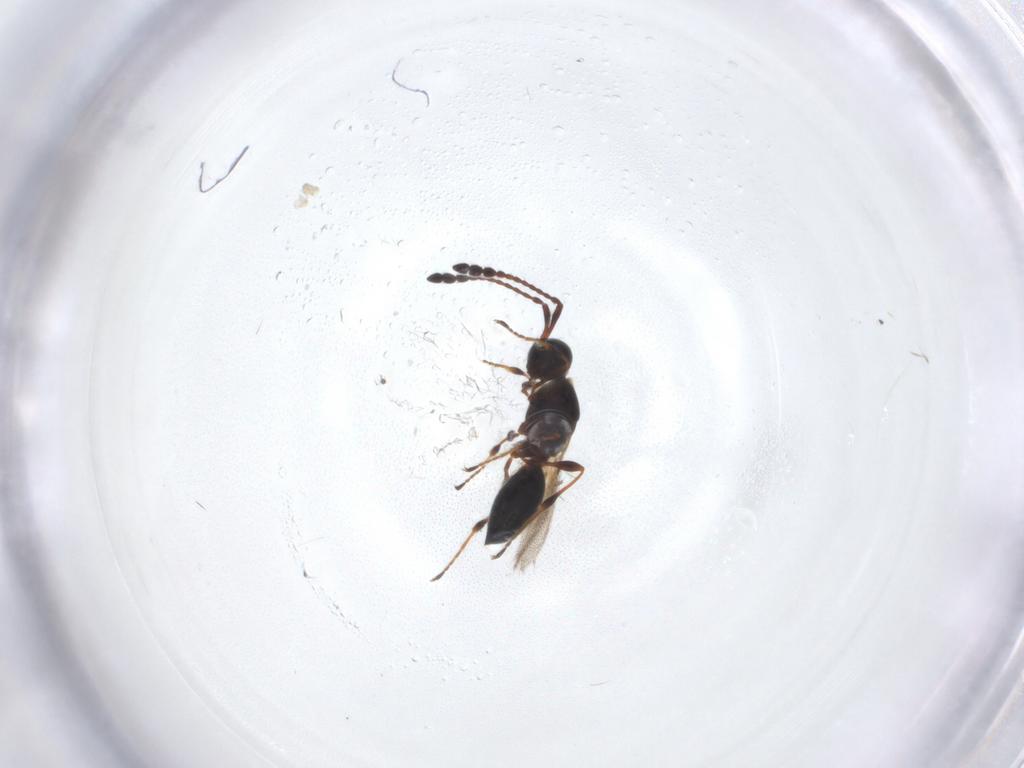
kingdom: Animalia
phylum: Arthropoda
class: Insecta
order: Hymenoptera
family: Diapriidae
